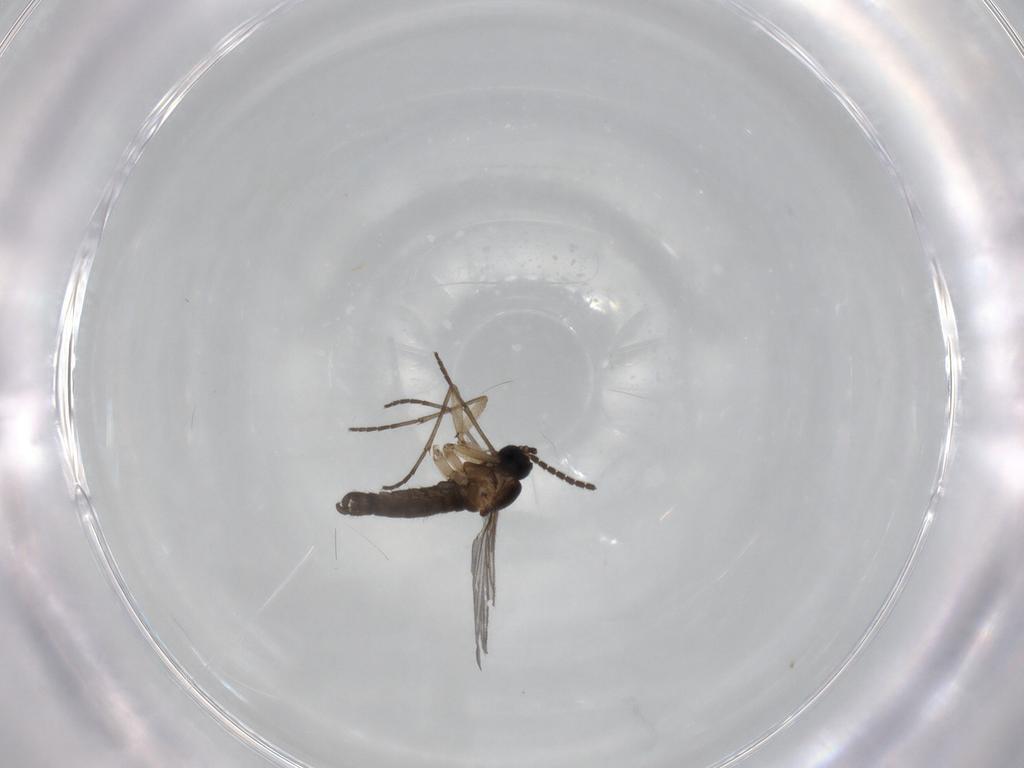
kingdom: Animalia
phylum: Arthropoda
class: Insecta
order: Diptera
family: Sciaridae
